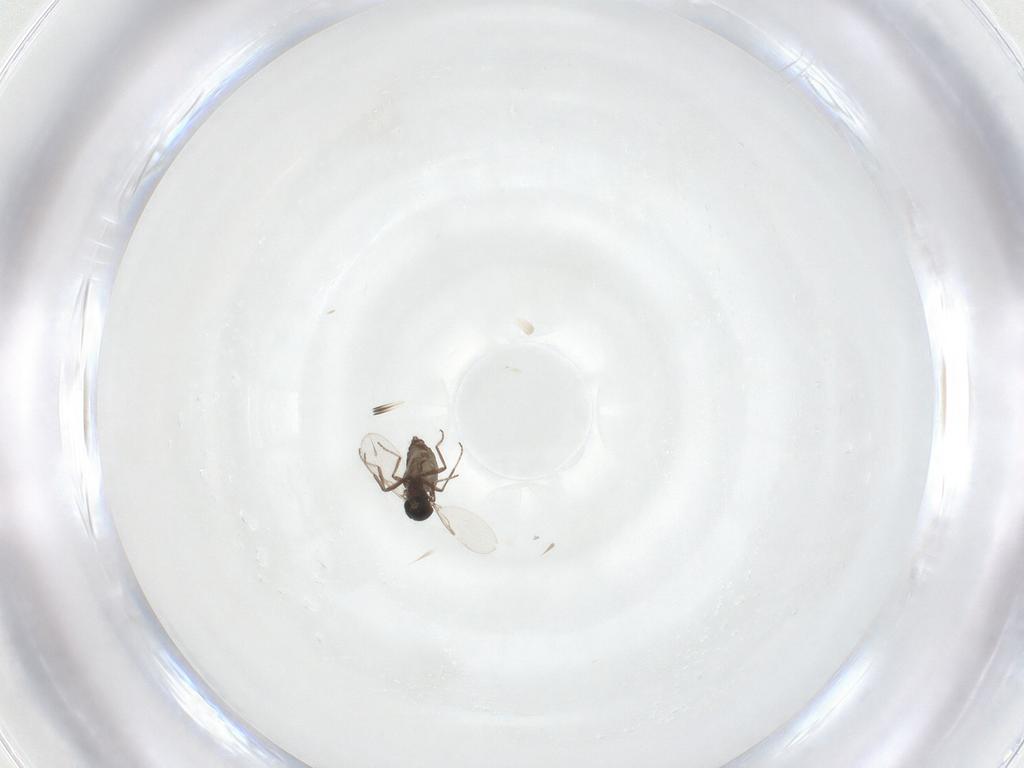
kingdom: Animalia
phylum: Arthropoda
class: Insecta
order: Diptera
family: Ceratopogonidae
